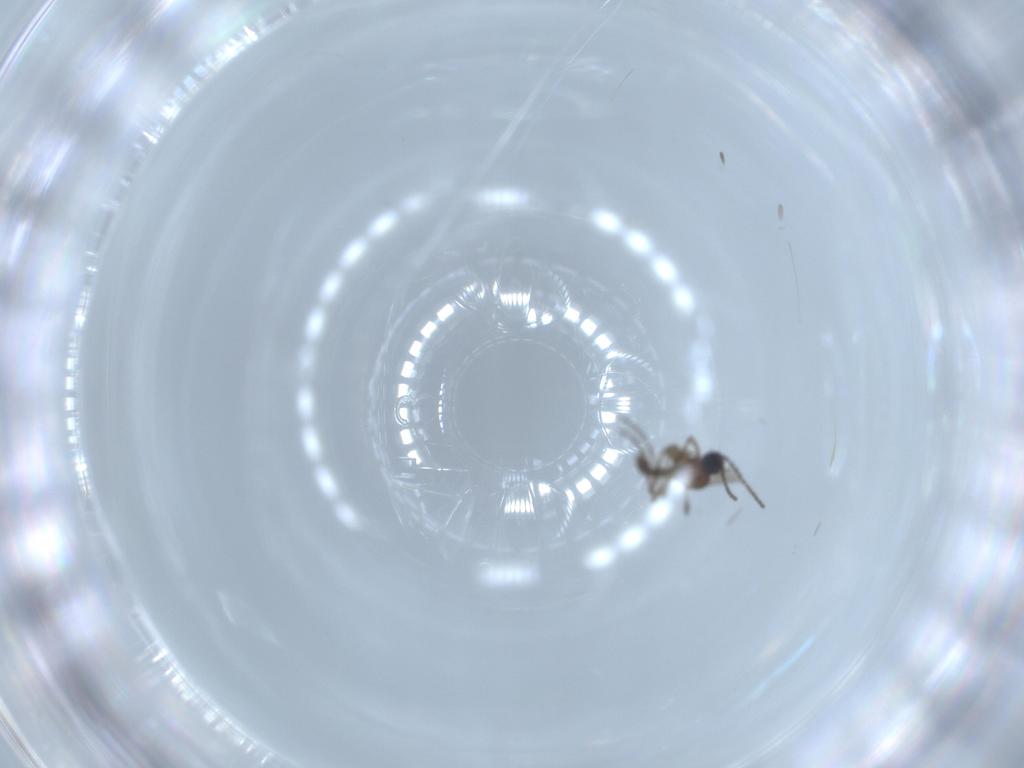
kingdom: Animalia
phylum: Arthropoda
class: Insecta
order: Diptera
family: Sciaridae
